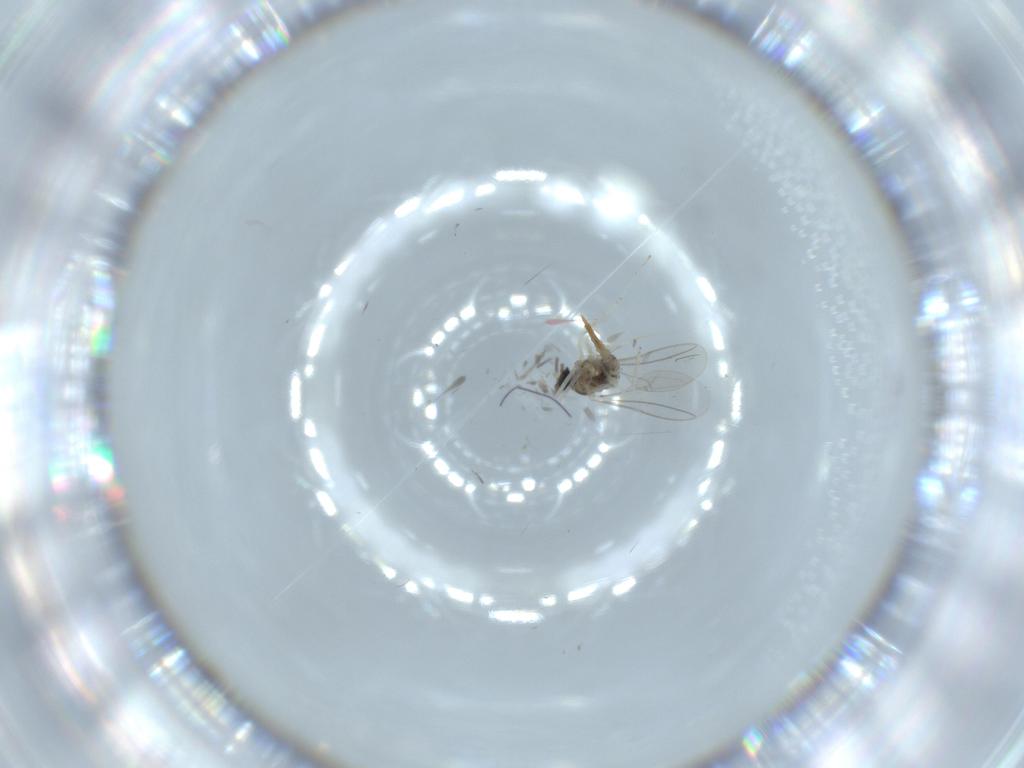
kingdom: Animalia
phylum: Arthropoda
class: Insecta
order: Diptera
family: Cecidomyiidae
